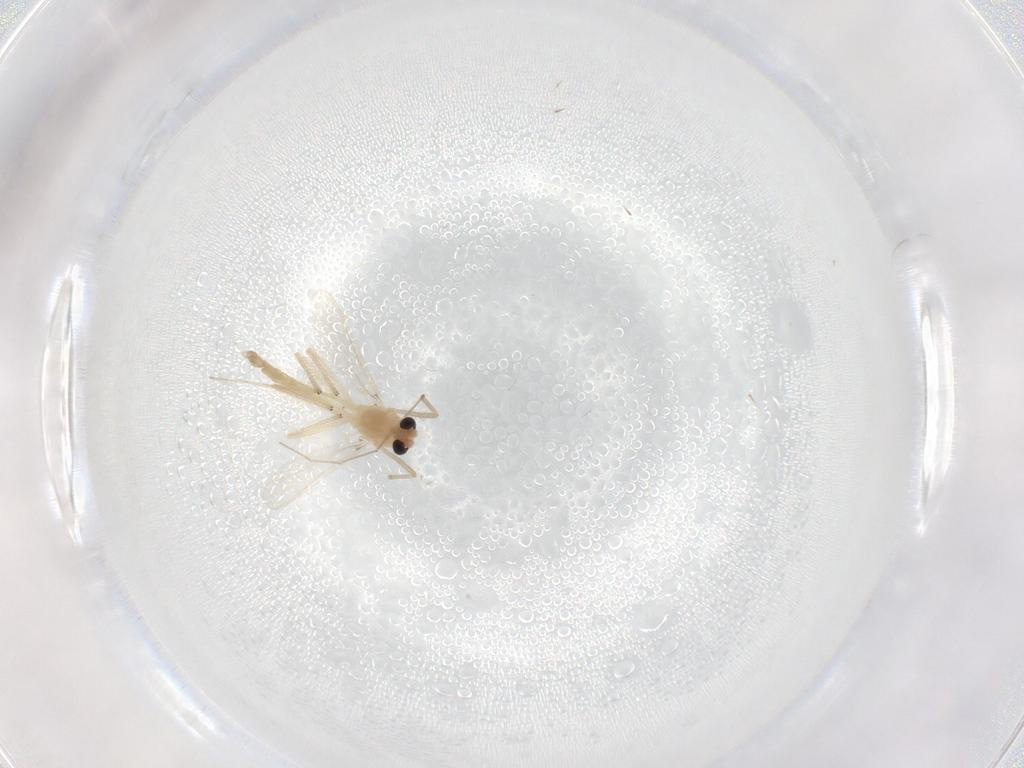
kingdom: Animalia
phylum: Arthropoda
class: Insecta
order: Diptera
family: Chironomidae
